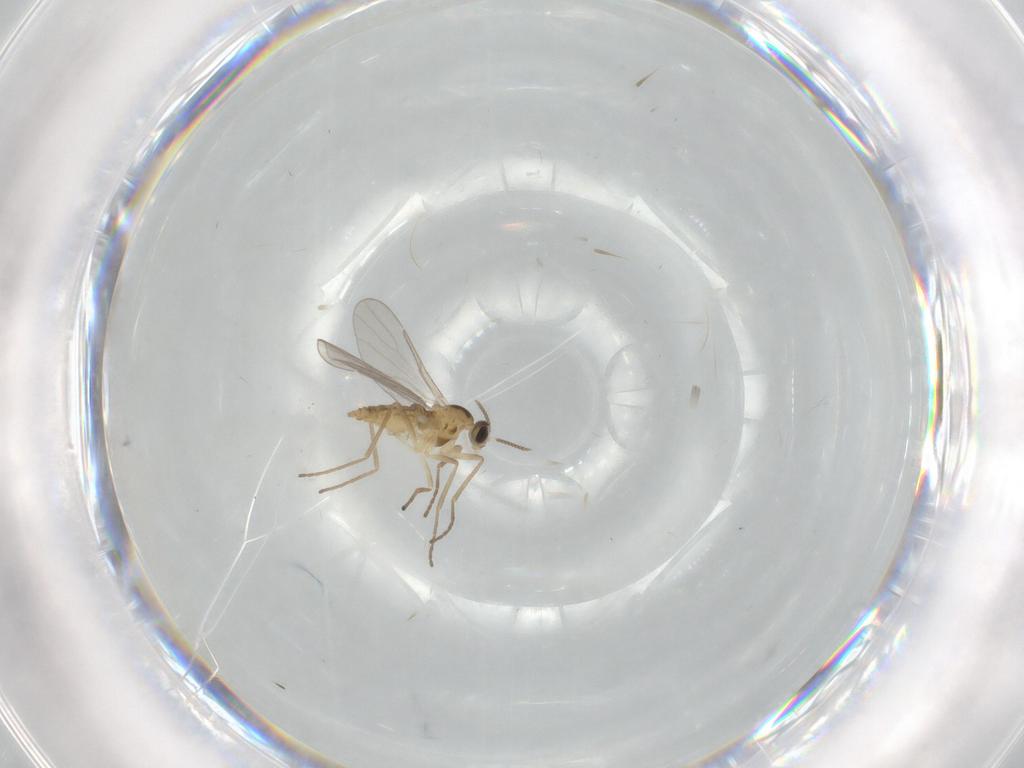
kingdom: Animalia
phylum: Arthropoda
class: Insecta
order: Diptera
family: Cecidomyiidae
